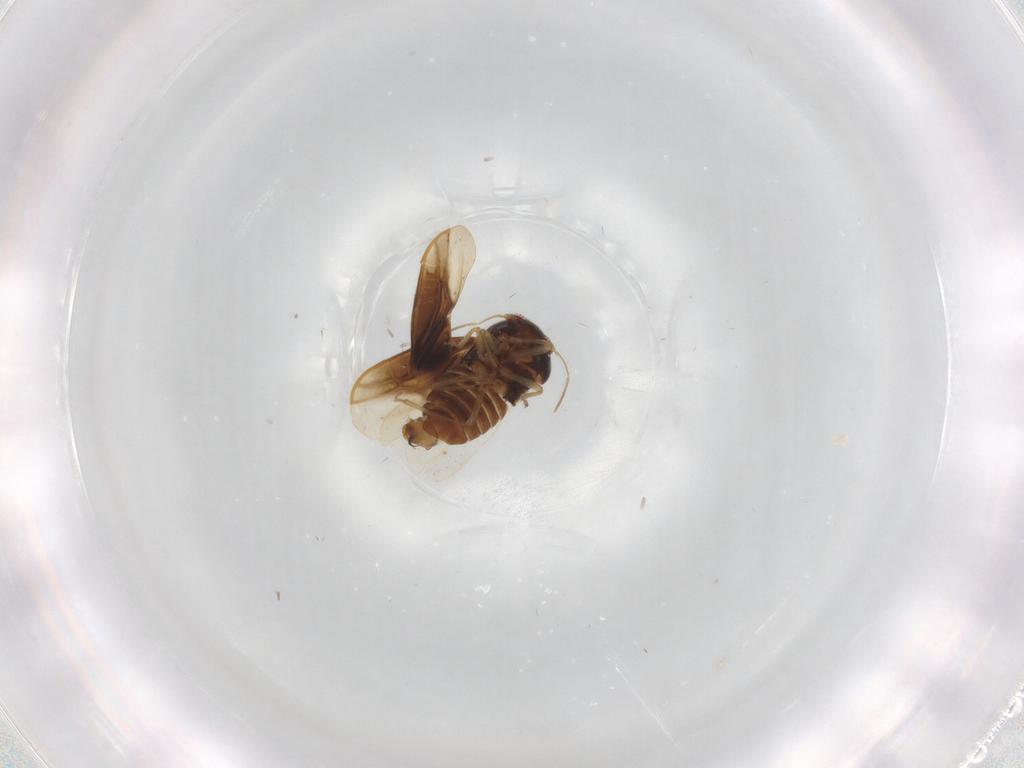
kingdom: Animalia
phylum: Arthropoda
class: Insecta
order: Hemiptera
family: Schizopteridae
